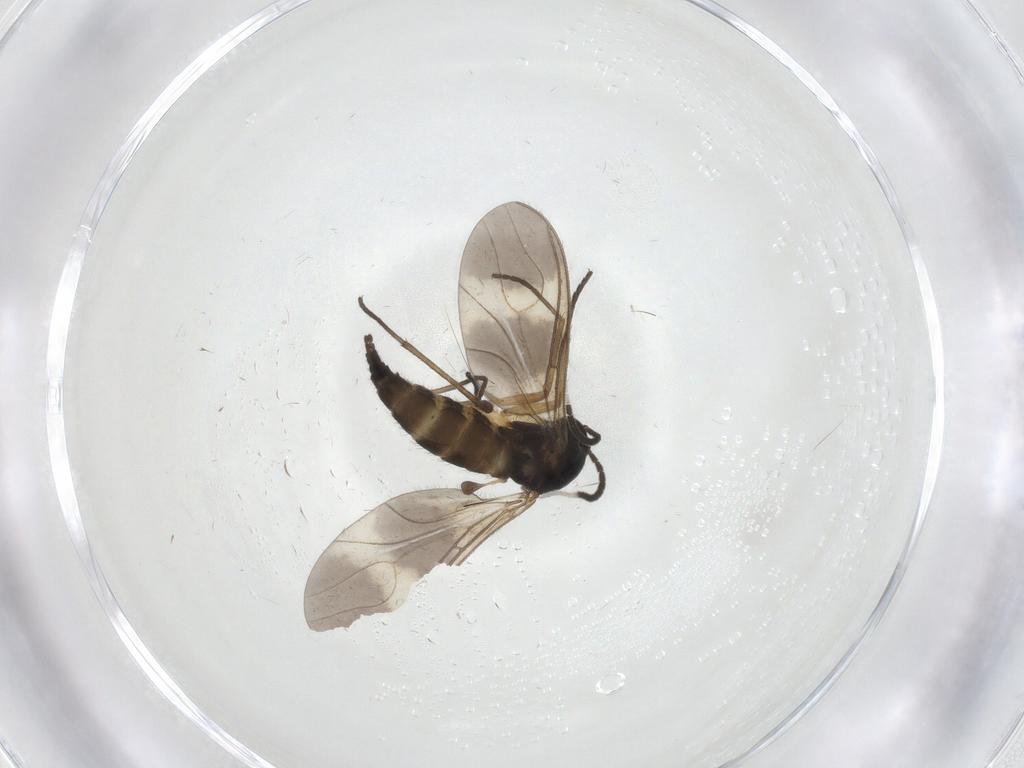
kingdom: Animalia
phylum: Arthropoda
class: Insecta
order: Diptera
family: Sciaridae
